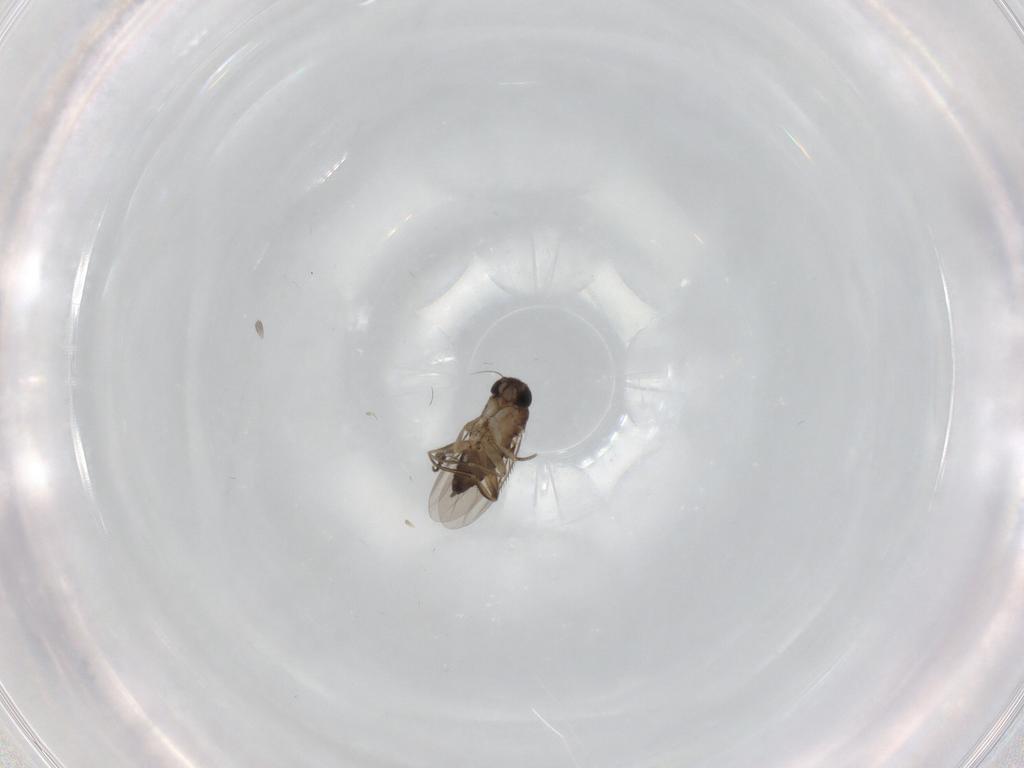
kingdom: Animalia
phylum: Arthropoda
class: Insecta
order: Diptera
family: Phoridae
